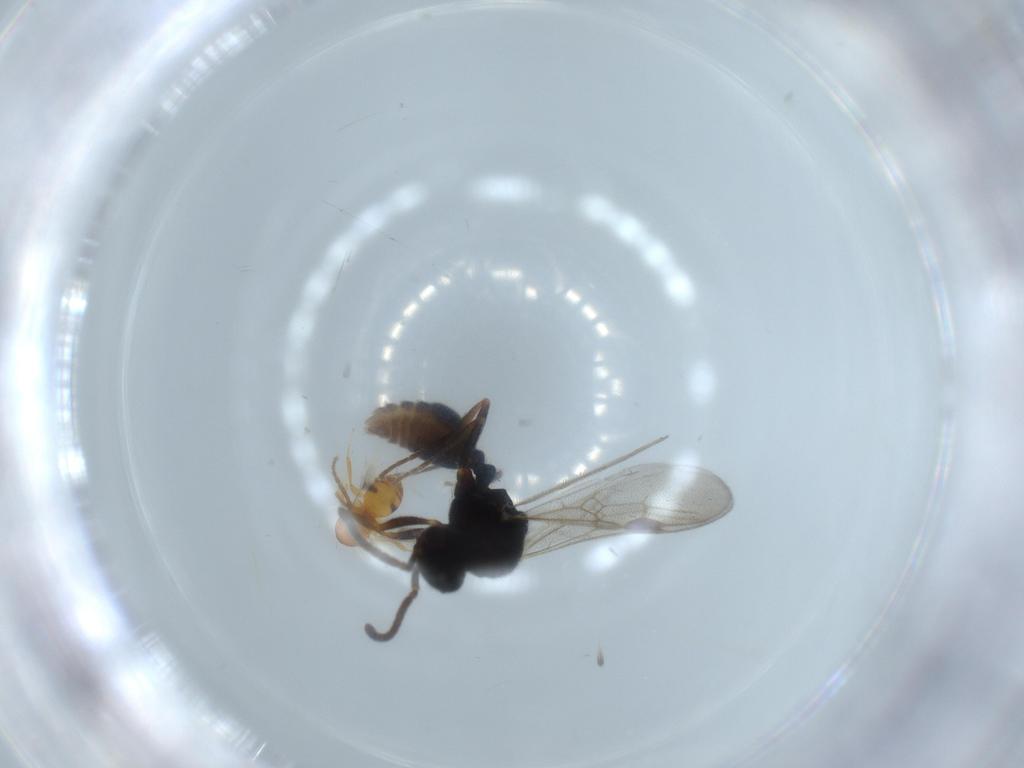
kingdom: Animalia
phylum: Arthropoda
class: Insecta
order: Hymenoptera
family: Formicidae
